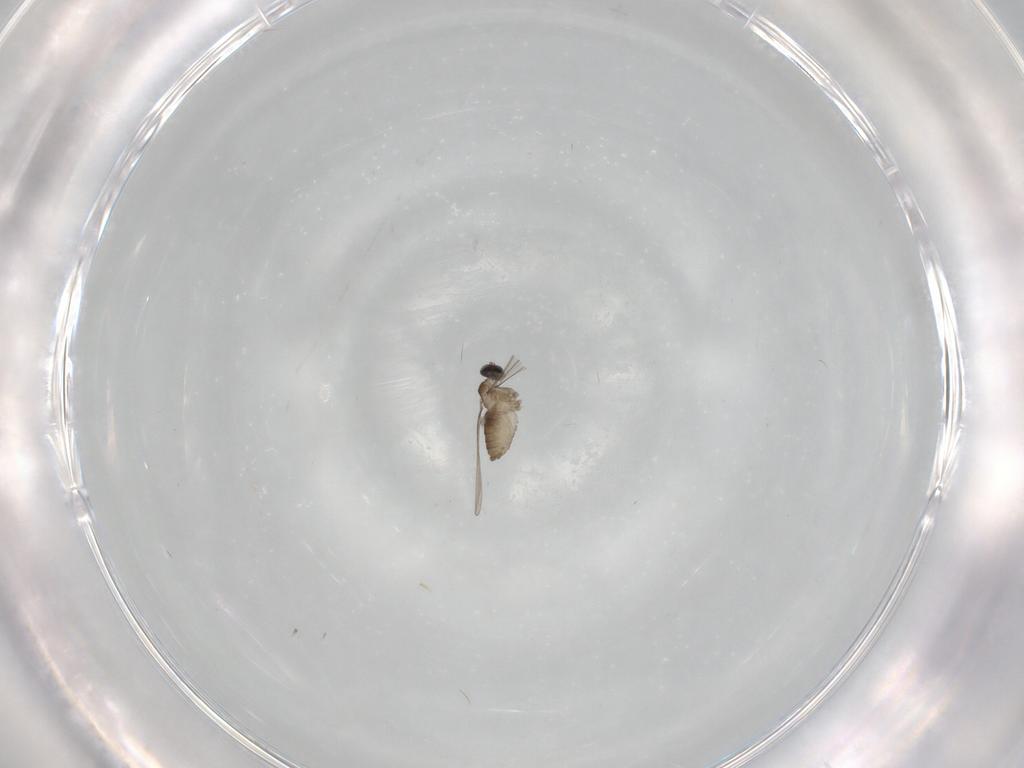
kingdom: Animalia
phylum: Arthropoda
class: Insecta
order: Diptera
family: Cecidomyiidae
